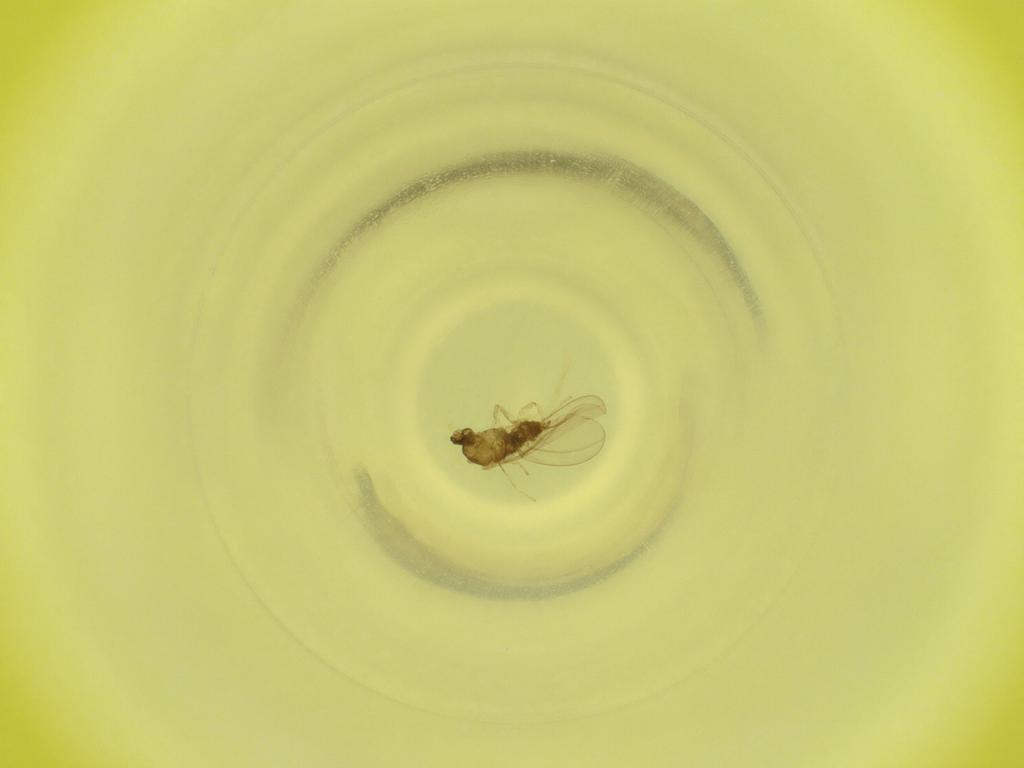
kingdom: Animalia
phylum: Arthropoda
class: Insecta
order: Diptera
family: Cecidomyiidae
